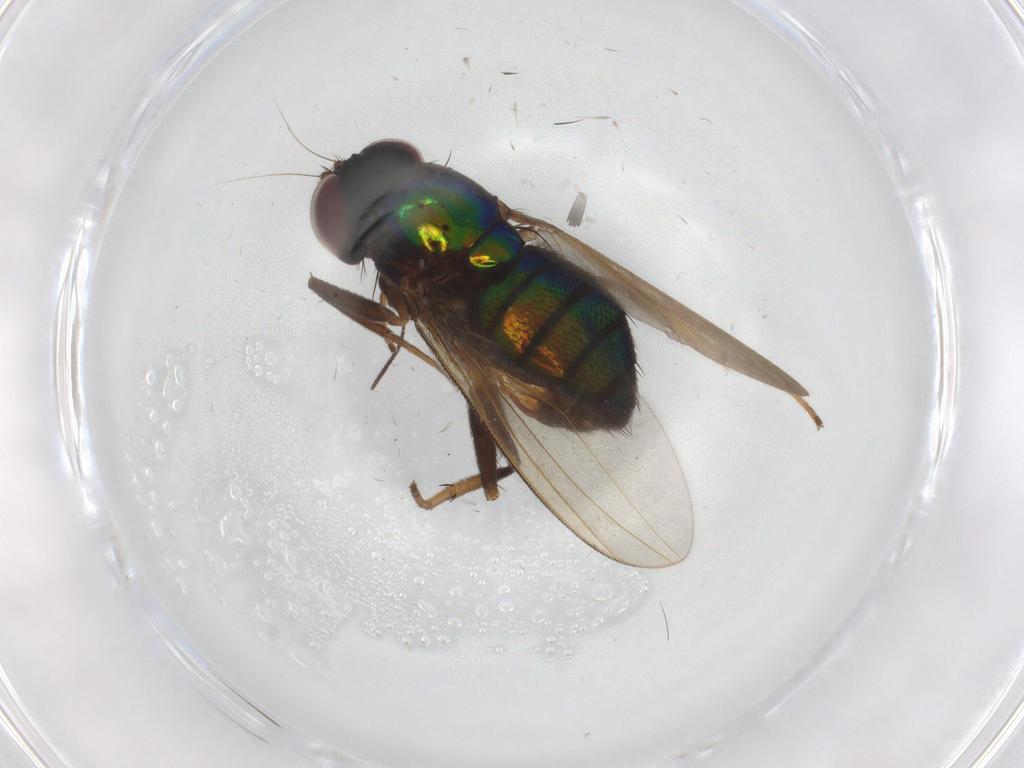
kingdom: Animalia
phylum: Arthropoda
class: Insecta
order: Diptera
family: Dolichopodidae
